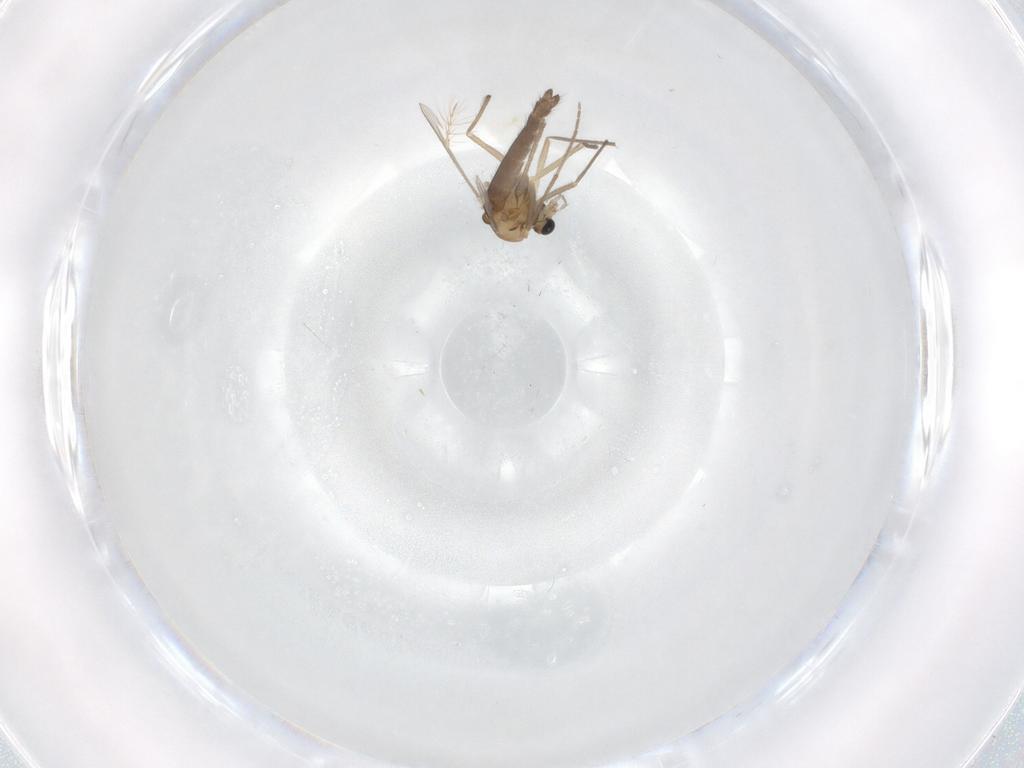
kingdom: Animalia
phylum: Arthropoda
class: Insecta
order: Diptera
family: Chironomidae
